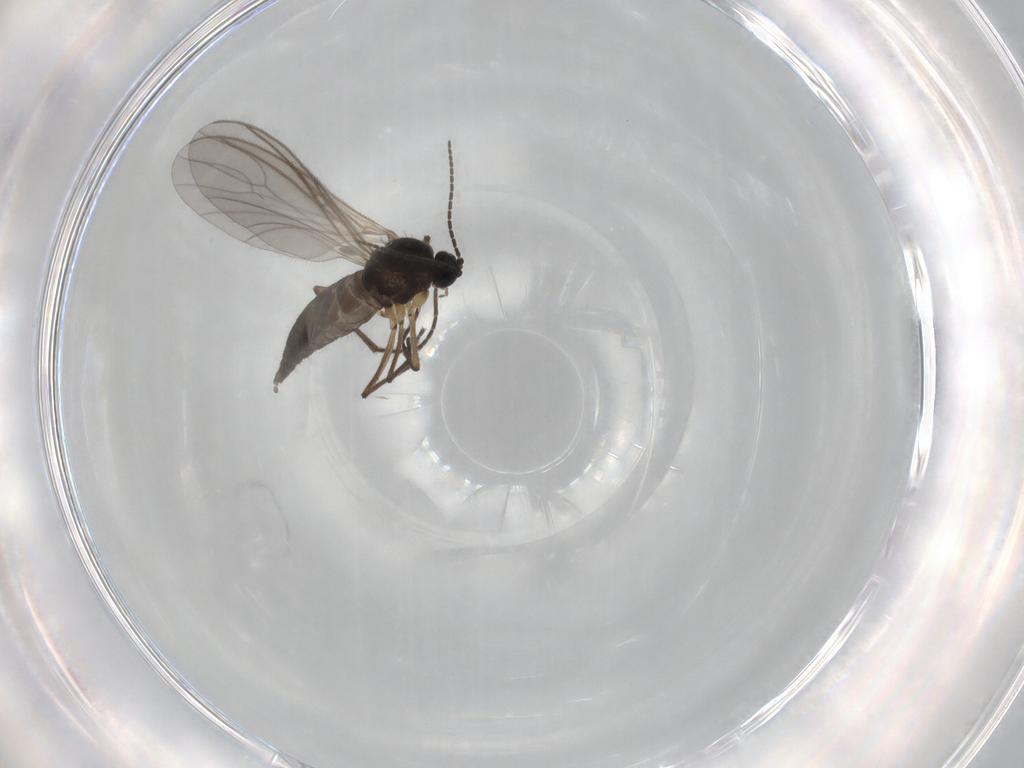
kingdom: Animalia
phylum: Arthropoda
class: Insecta
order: Diptera
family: Sciaridae
